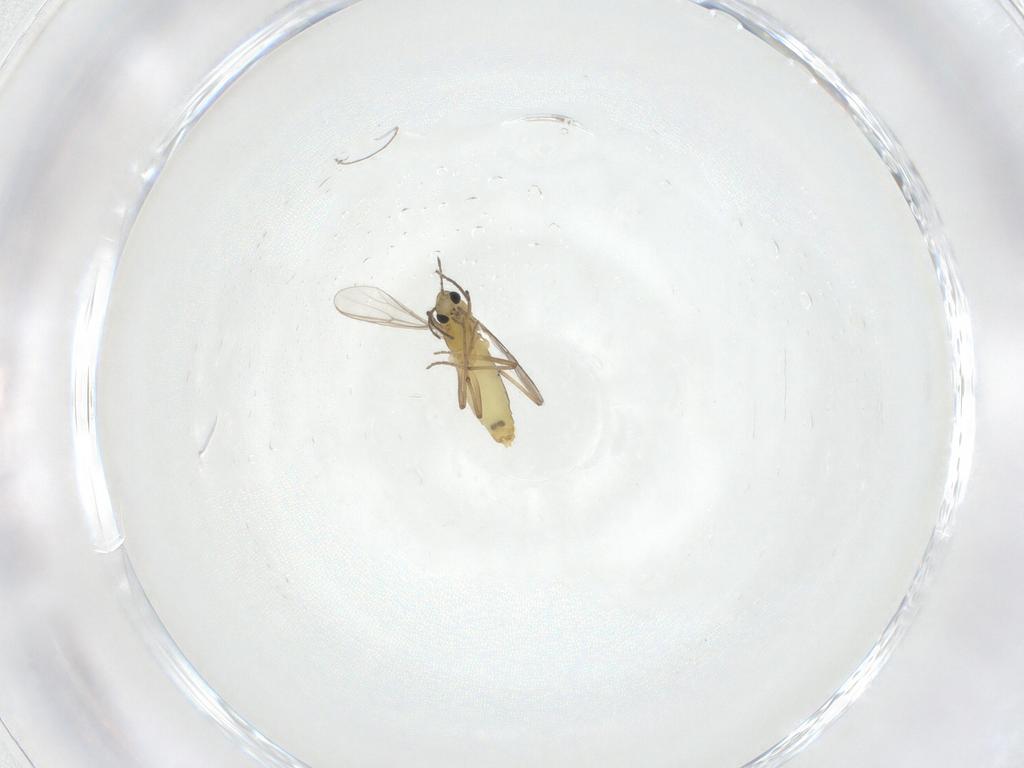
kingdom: Animalia
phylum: Arthropoda
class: Insecta
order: Diptera
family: Chironomidae
